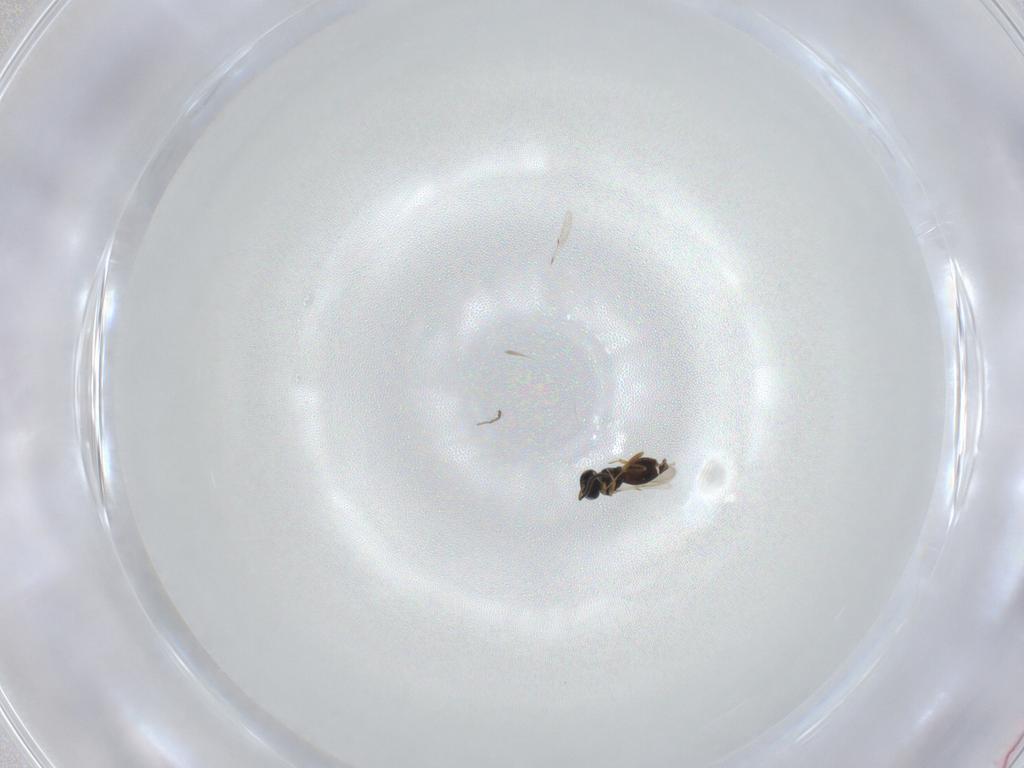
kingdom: Animalia
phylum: Arthropoda
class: Insecta
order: Hymenoptera
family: Scelionidae
